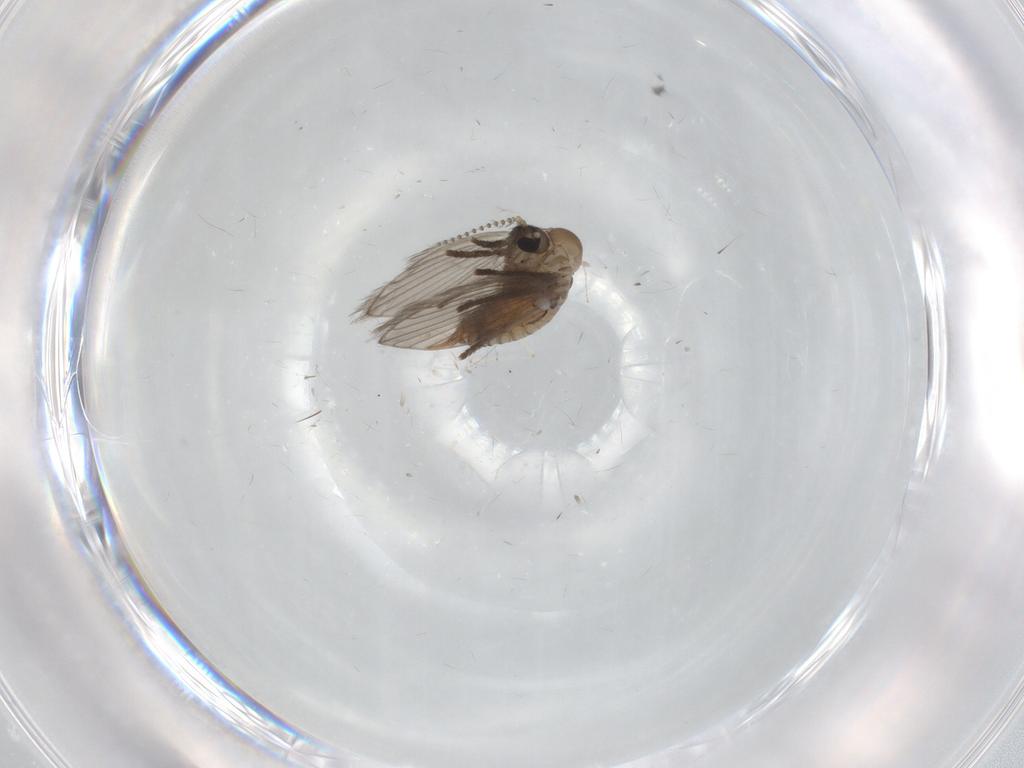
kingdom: Animalia
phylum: Arthropoda
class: Insecta
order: Diptera
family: Psychodidae
